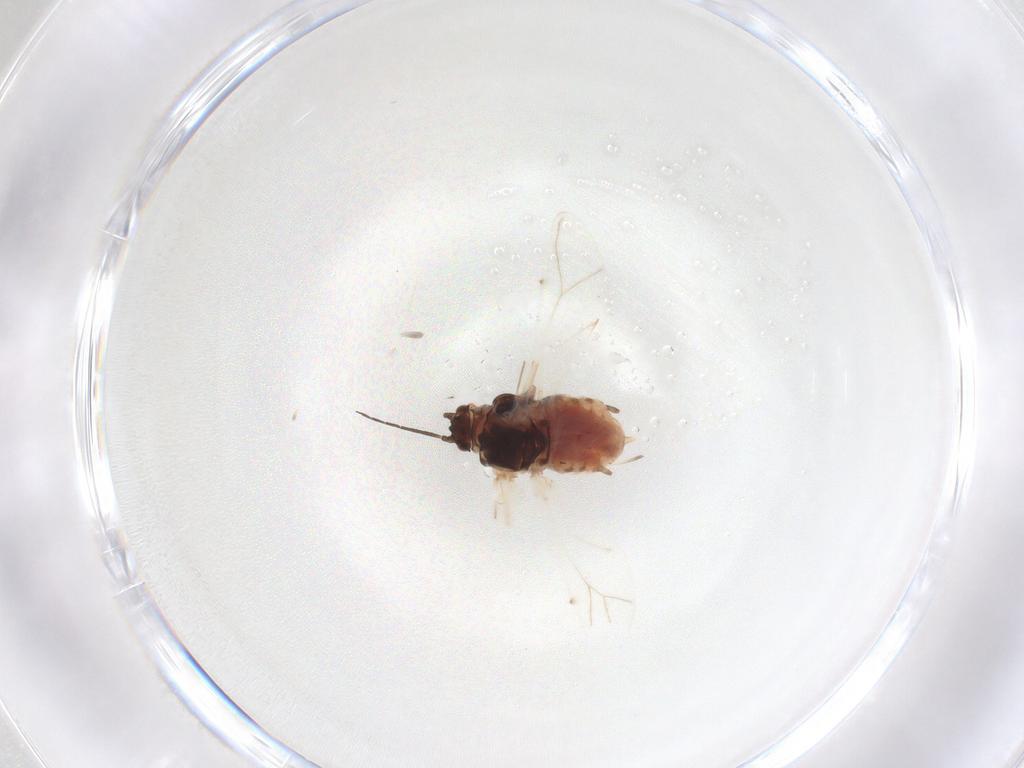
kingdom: Animalia
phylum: Arthropoda
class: Insecta
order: Hemiptera
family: Aphididae
